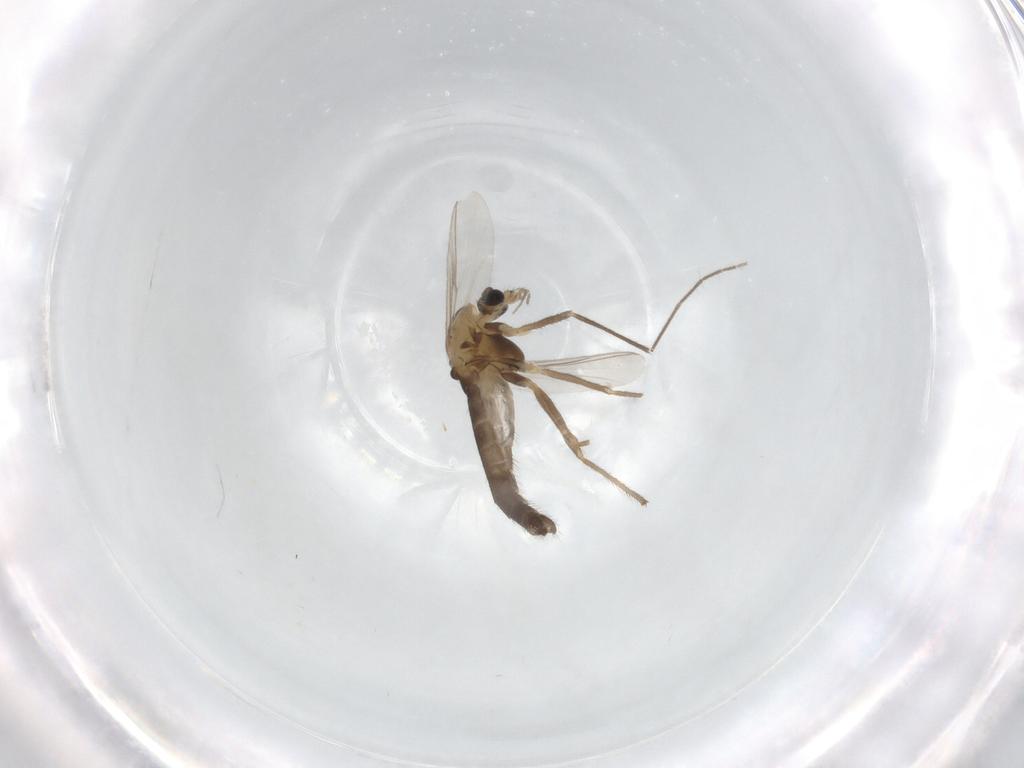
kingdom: Animalia
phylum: Arthropoda
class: Insecta
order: Diptera
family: Chironomidae
